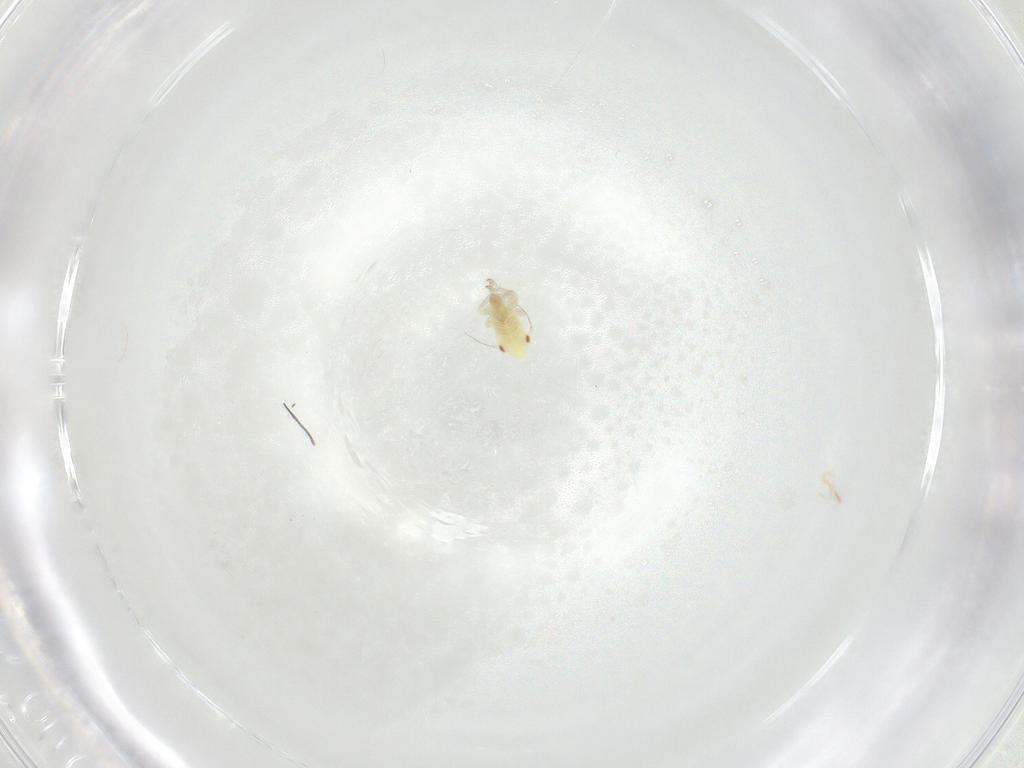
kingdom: Animalia
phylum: Arthropoda
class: Insecta
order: Hemiptera
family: Cicadellidae
